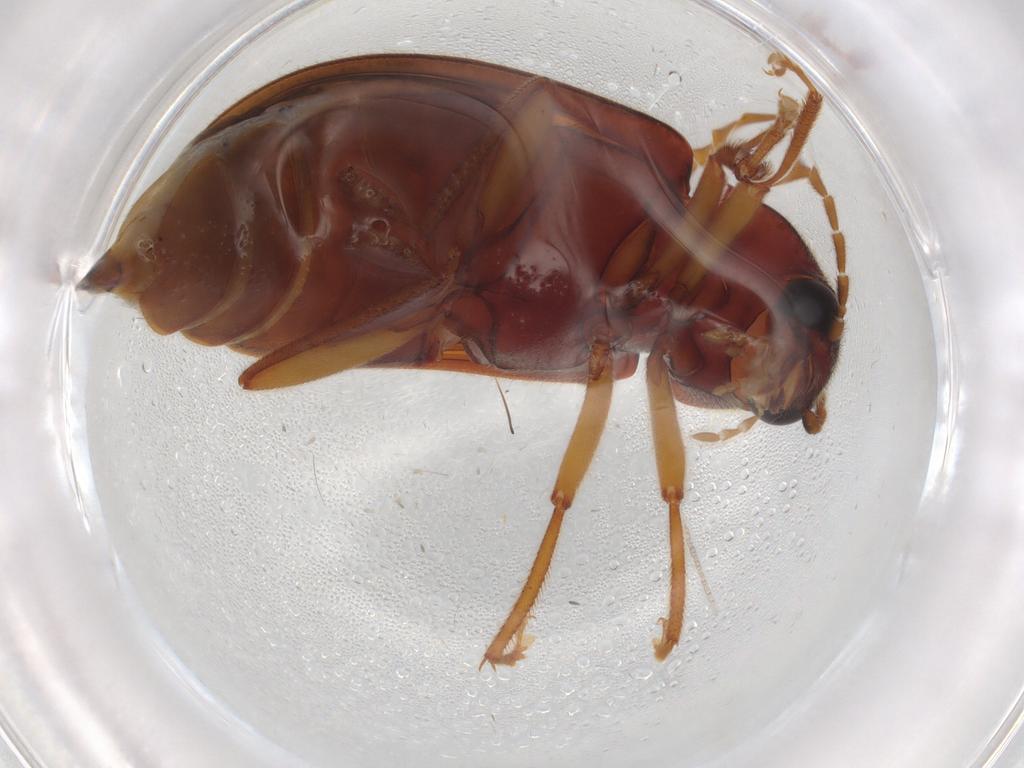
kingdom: Animalia
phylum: Arthropoda
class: Insecta
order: Coleoptera
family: Ptilodactylidae
